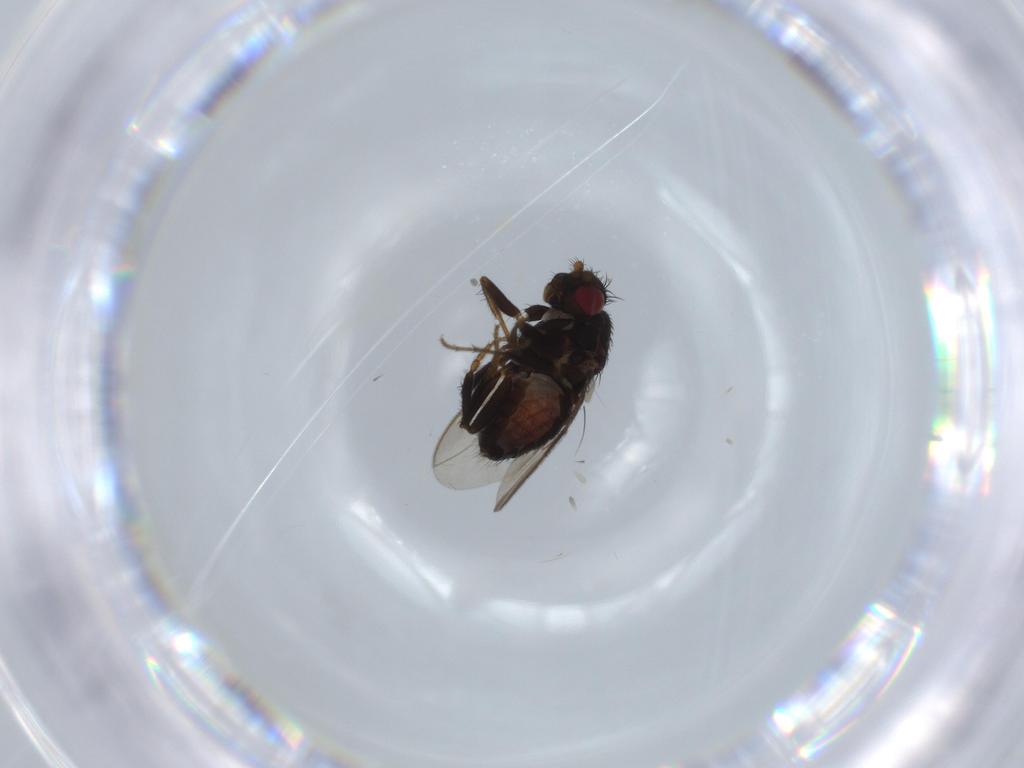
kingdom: Animalia
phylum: Arthropoda
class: Insecta
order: Diptera
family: Sphaeroceridae
